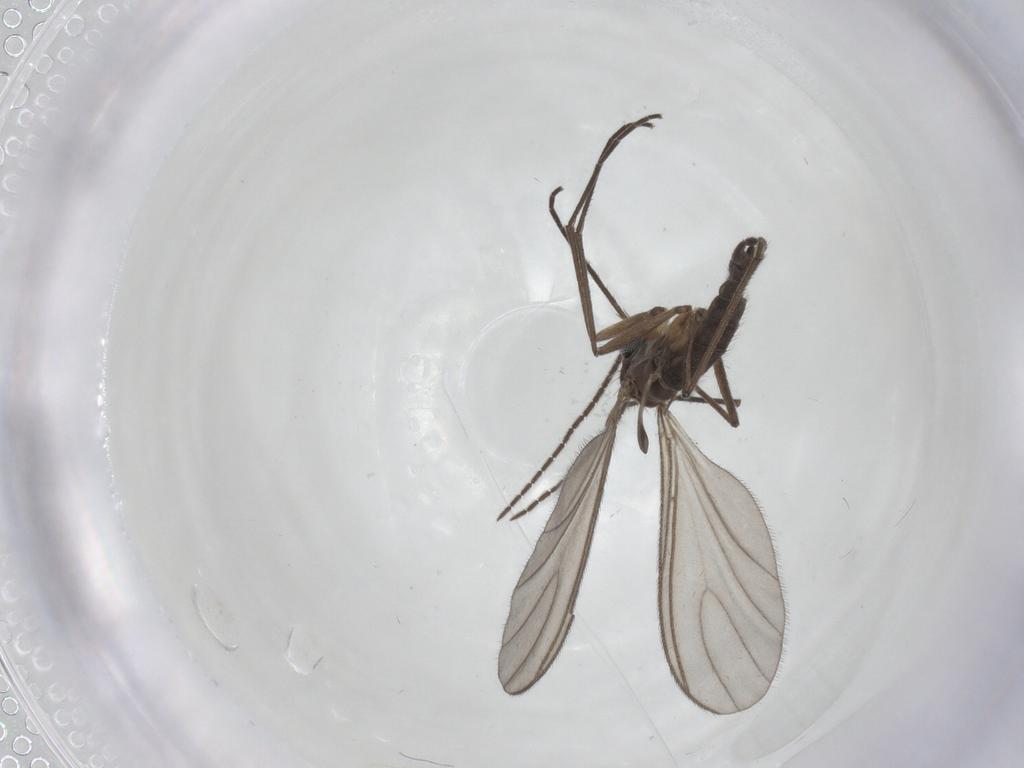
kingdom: Animalia
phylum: Arthropoda
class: Insecta
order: Diptera
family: Sciaridae
